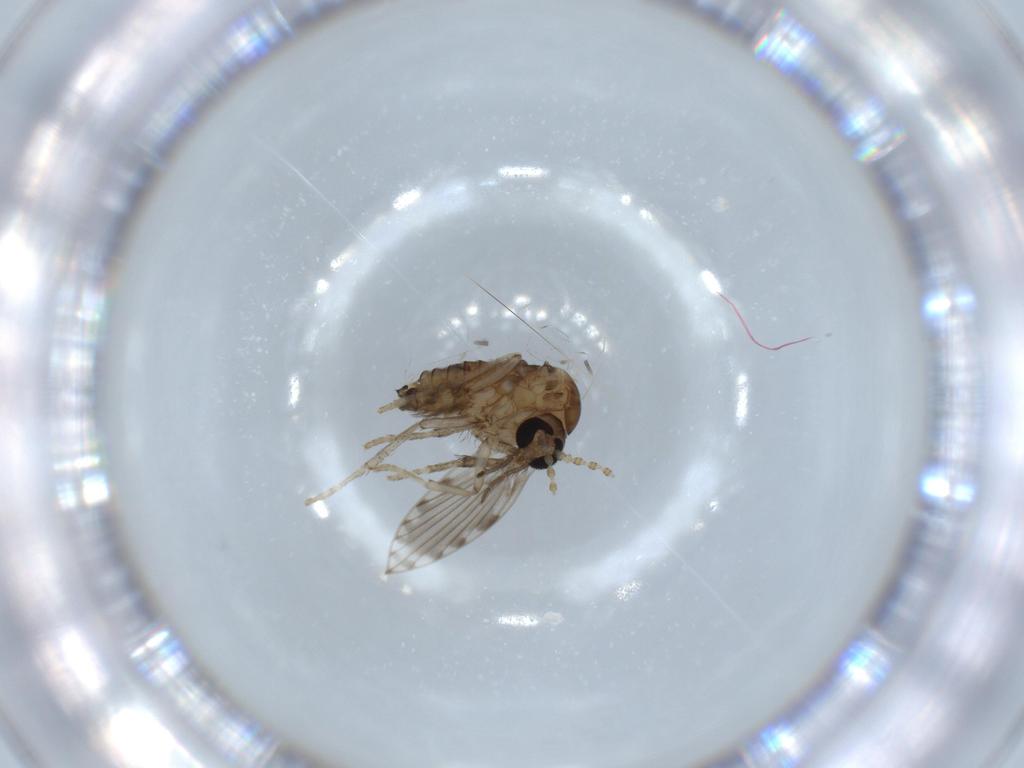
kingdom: Animalia
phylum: Arthropoda
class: Insecta
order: Diptera
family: Psychodidae
